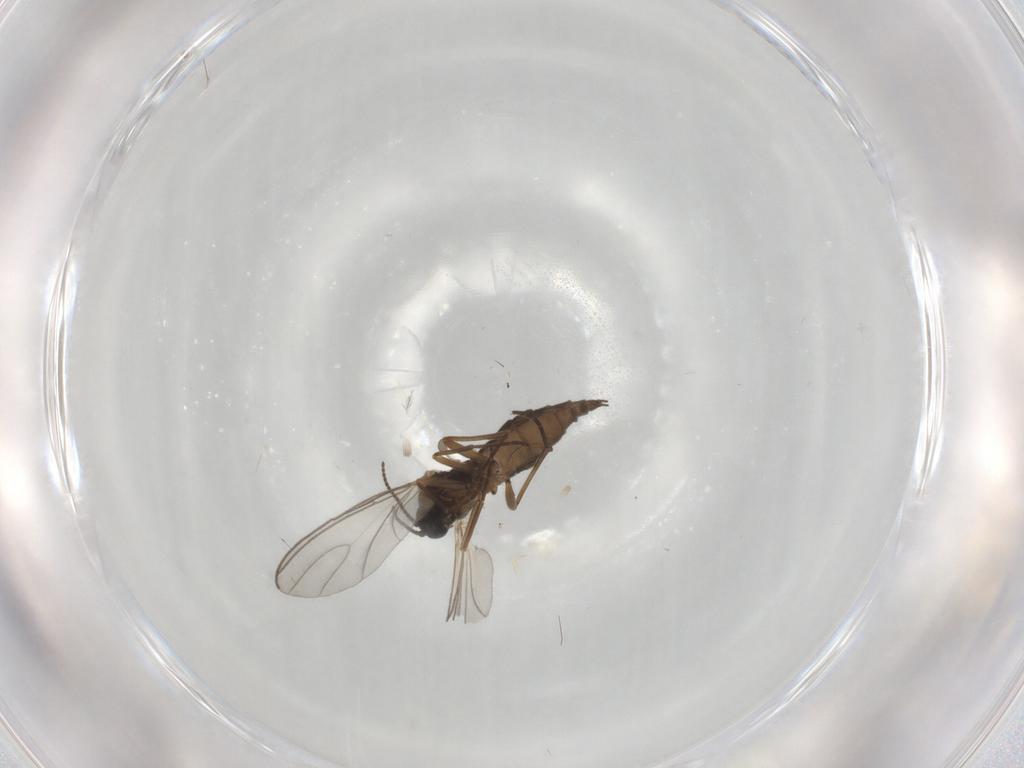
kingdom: Animalia
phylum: Arthropoda
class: Insecta
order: Diptera
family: Sciaridae
